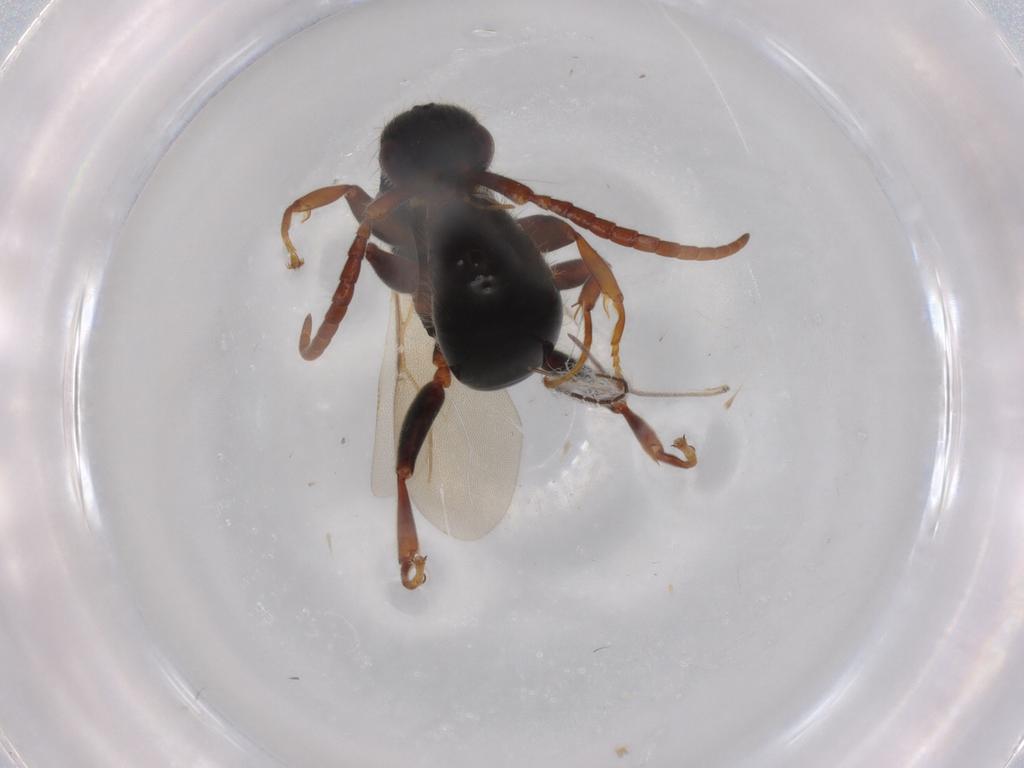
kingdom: Animalia
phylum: Arthropoda
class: Insecta
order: Hymenoptera
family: Bethylidae
